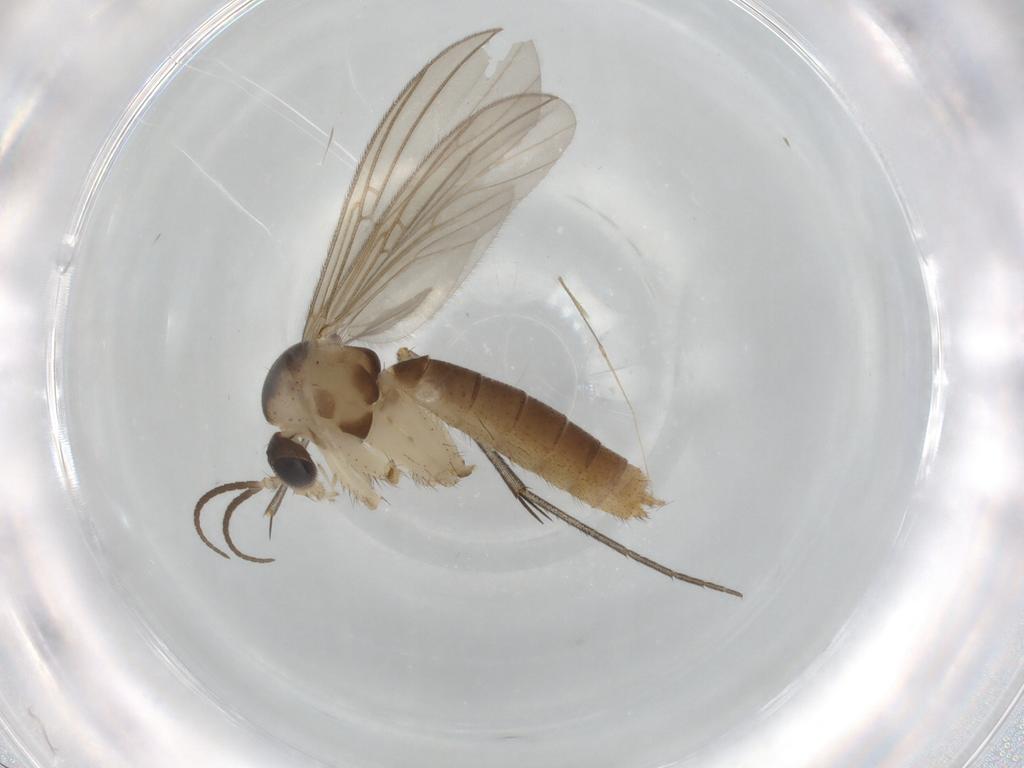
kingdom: Animalia
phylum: Arthropoda
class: Insecta
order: Diptera
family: Mycetophilidae
